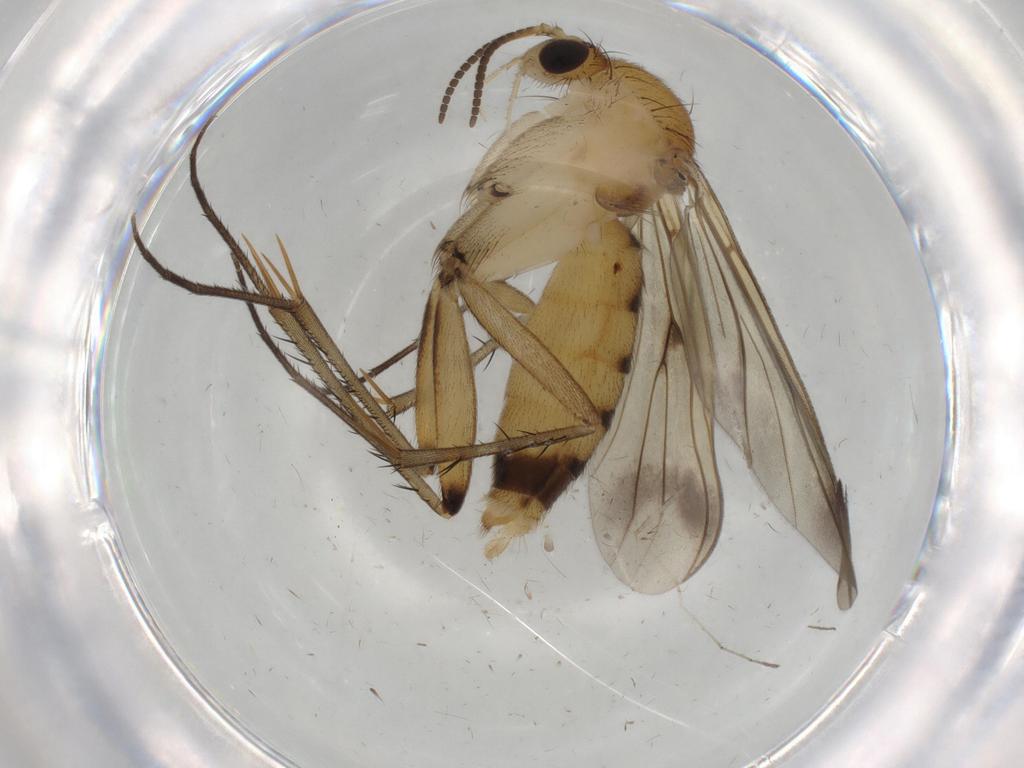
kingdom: Animalia
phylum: Arthropoda
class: Insecta
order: Diptera
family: Mycetophilidae
